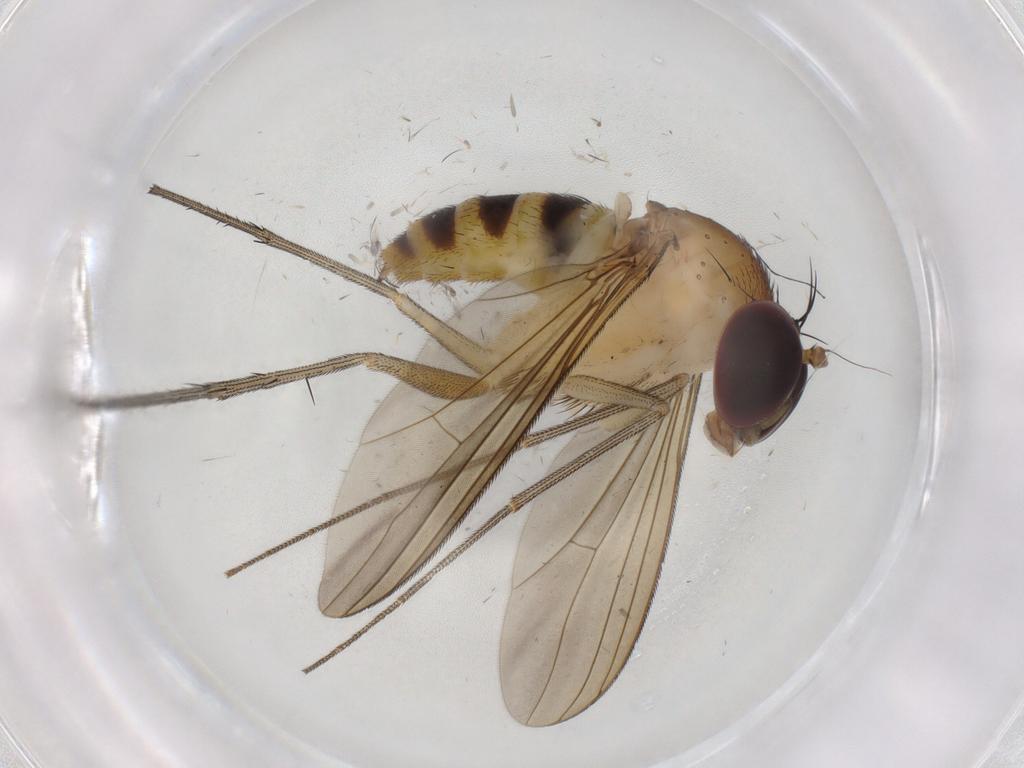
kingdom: Animalia
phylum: Arthropoda
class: Insecta
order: Diptera
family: Dolichopodidae
